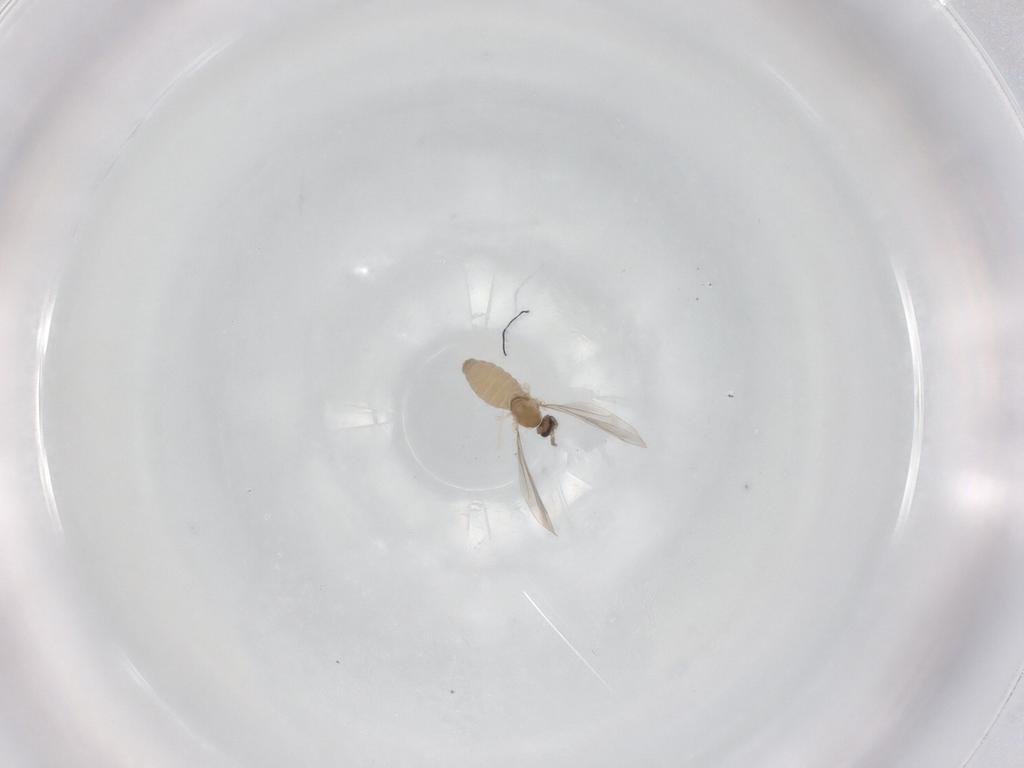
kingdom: Animalia
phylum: Arthropoda
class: Insecta
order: Diptera
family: Cecidomyiidae
